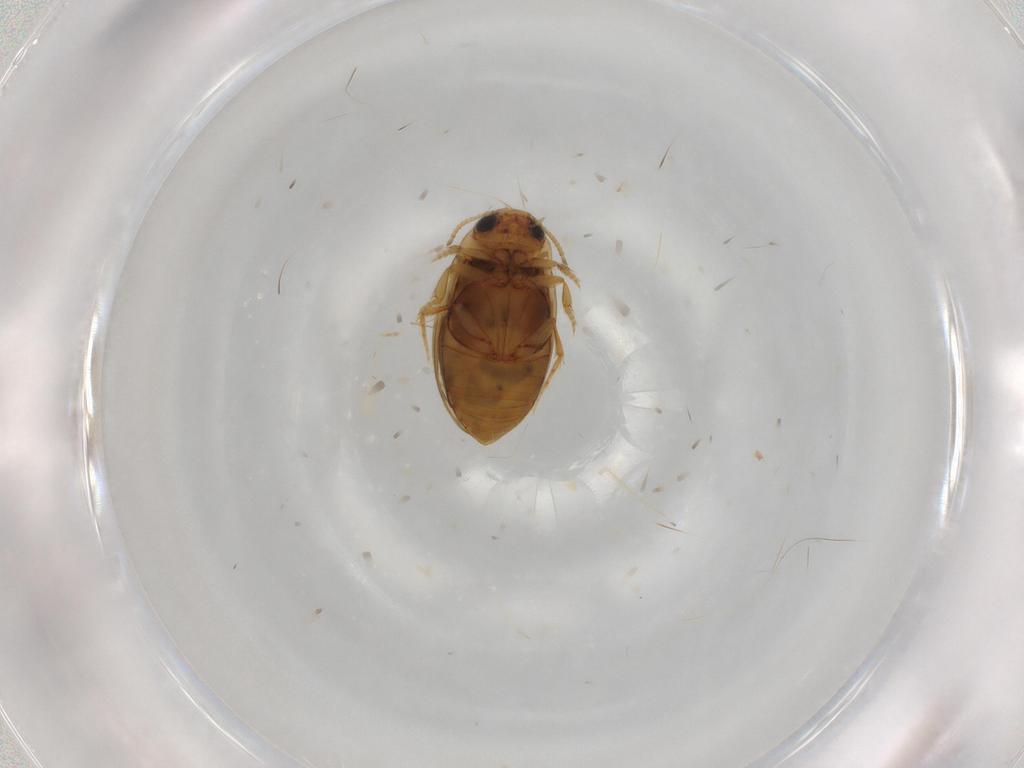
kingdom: Animalia
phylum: Arthropoda
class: Insecta
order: Coleoptera
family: Dytiscidae
